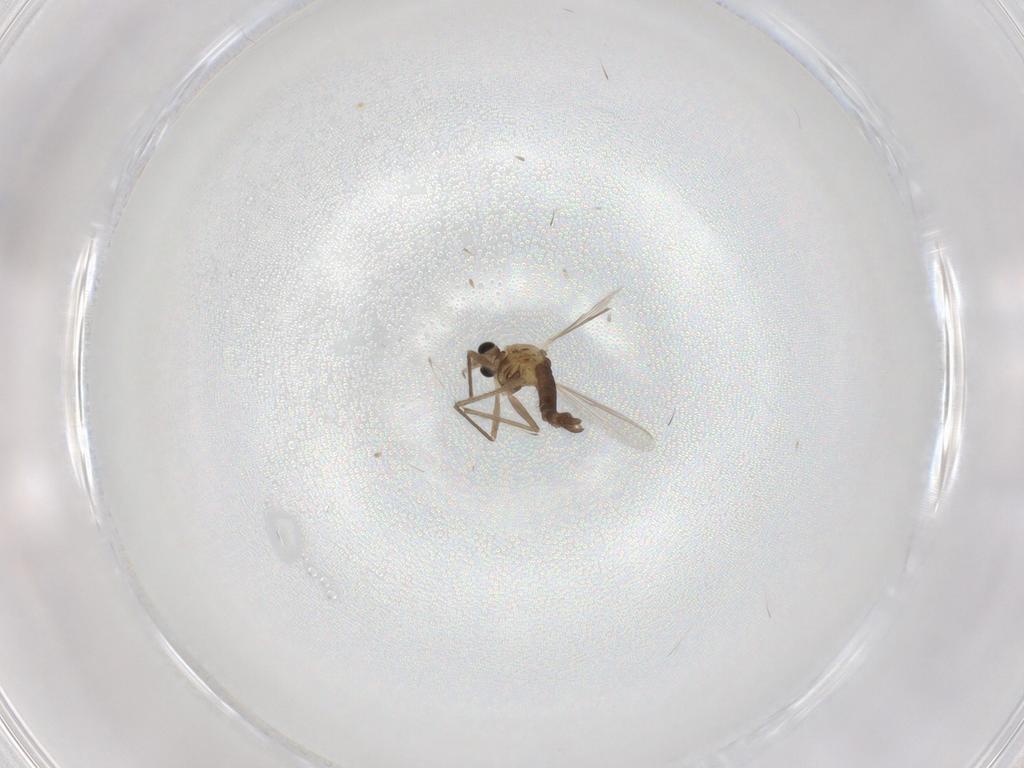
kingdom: Animalia
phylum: Arthropoda
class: Insecta
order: Diptera
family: Chironomidae
